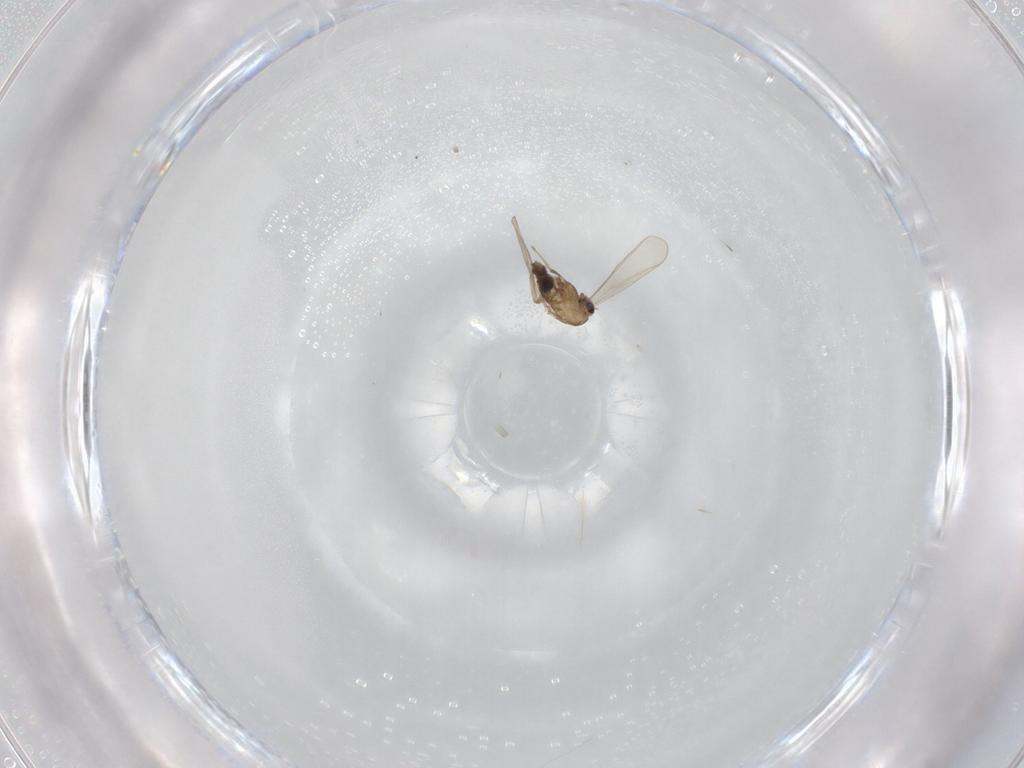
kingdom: Animalia
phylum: Arthropoda
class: Insecta
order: Diptera
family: Chironomidae
